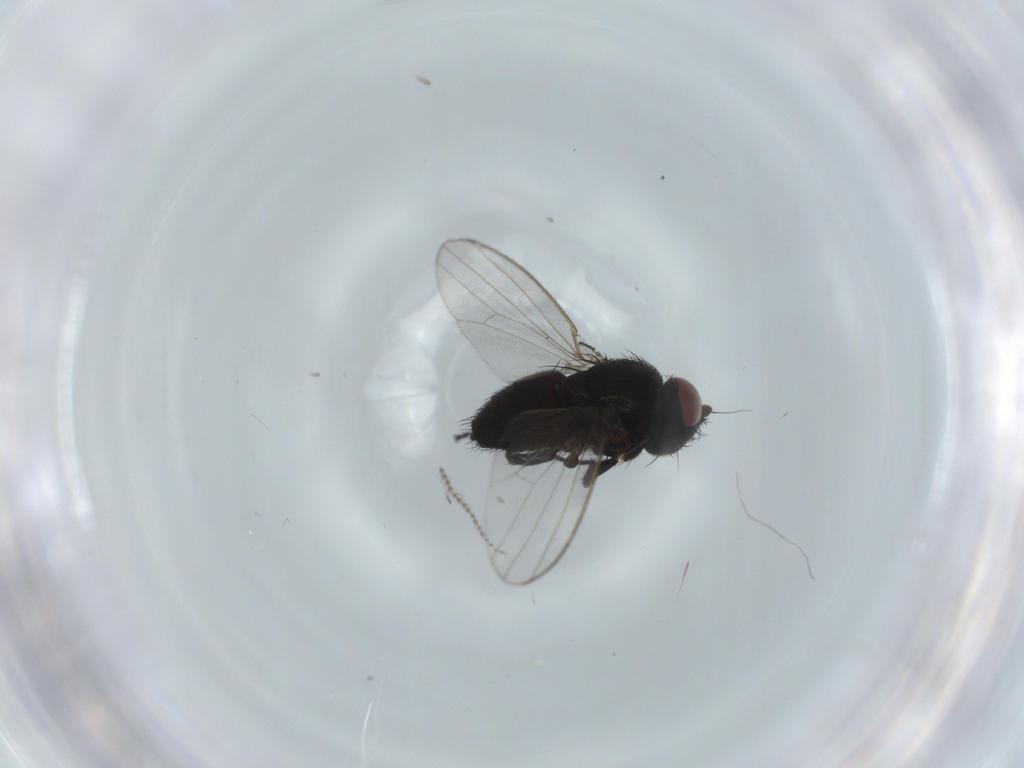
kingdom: Animalia
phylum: Arthropoda
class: Insecta
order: Diptera
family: Milichiidae
